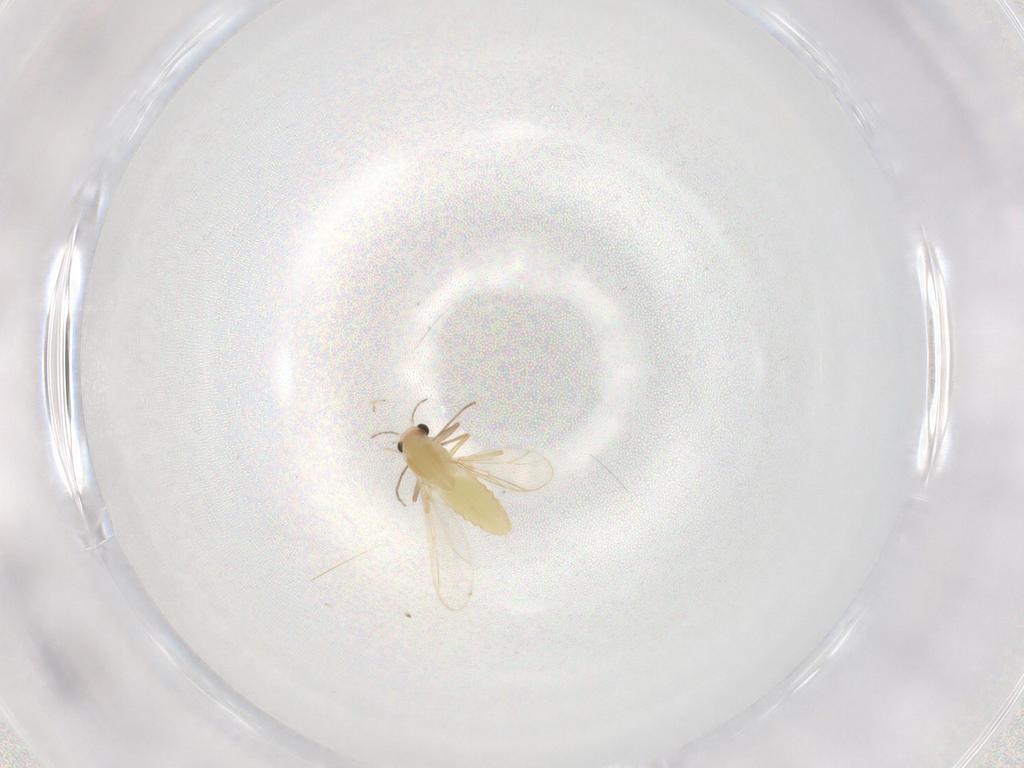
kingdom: Animalia
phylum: Arthropoda
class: Insecta
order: Diptera
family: Chironomidae
